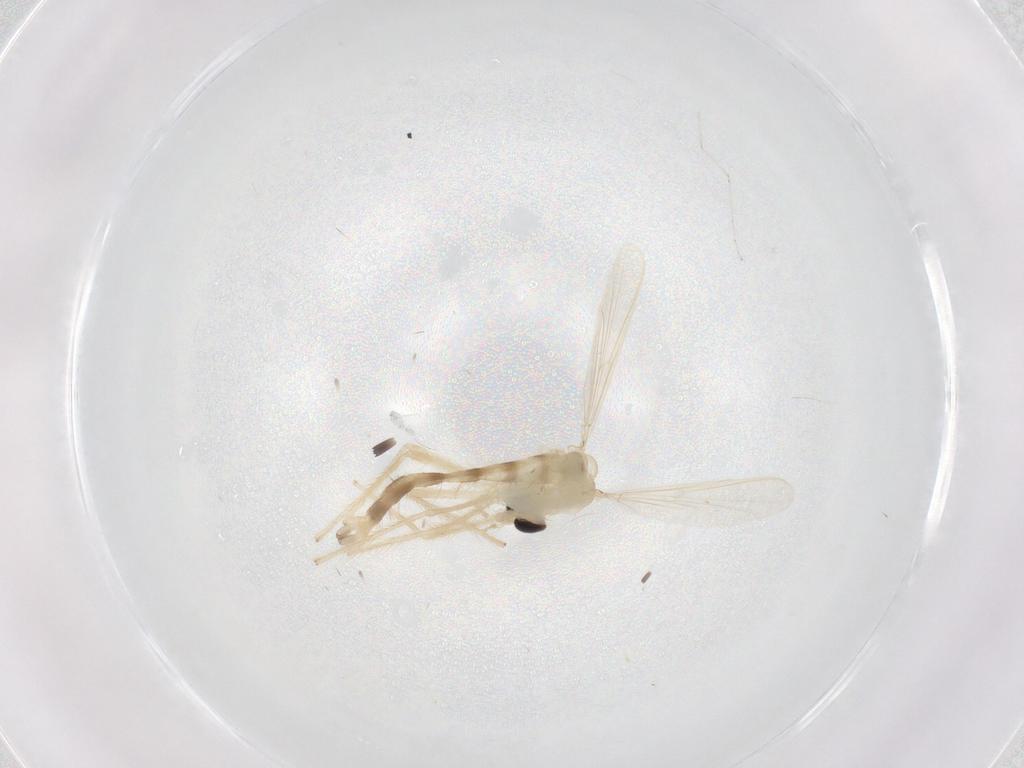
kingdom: Animalia
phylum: Arthropoda
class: Insecta
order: Diptera
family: Chironomidae
